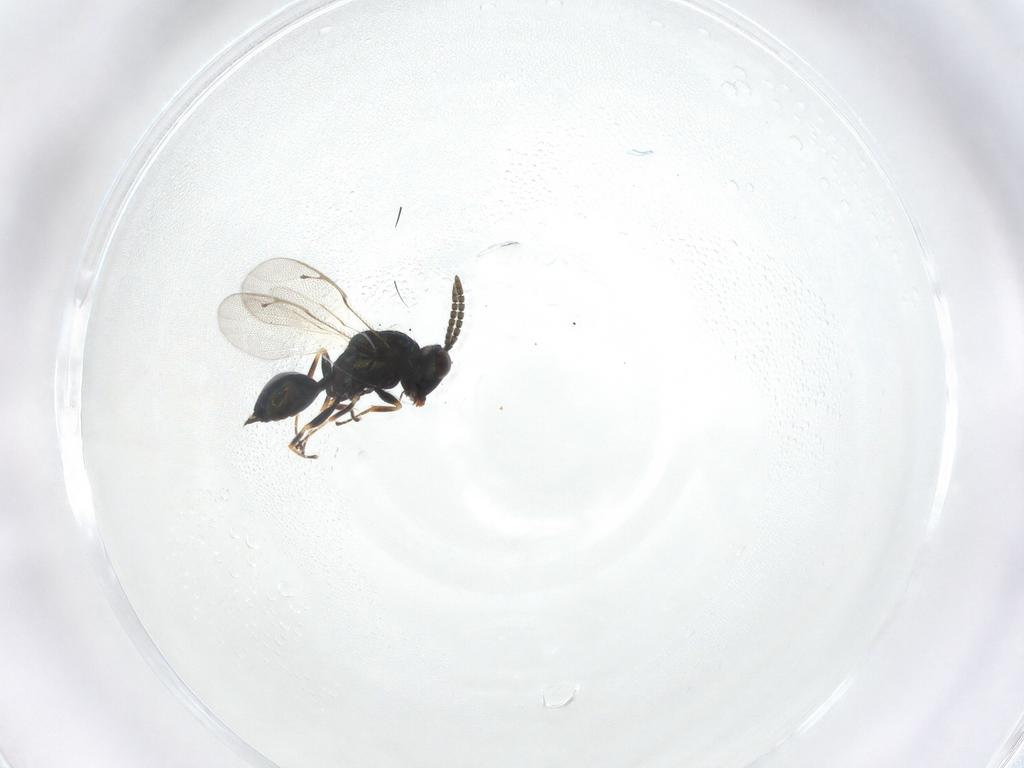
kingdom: Animalia
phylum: Arthropoda
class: Insecta
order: Hymenoptera
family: Pteromalidae
